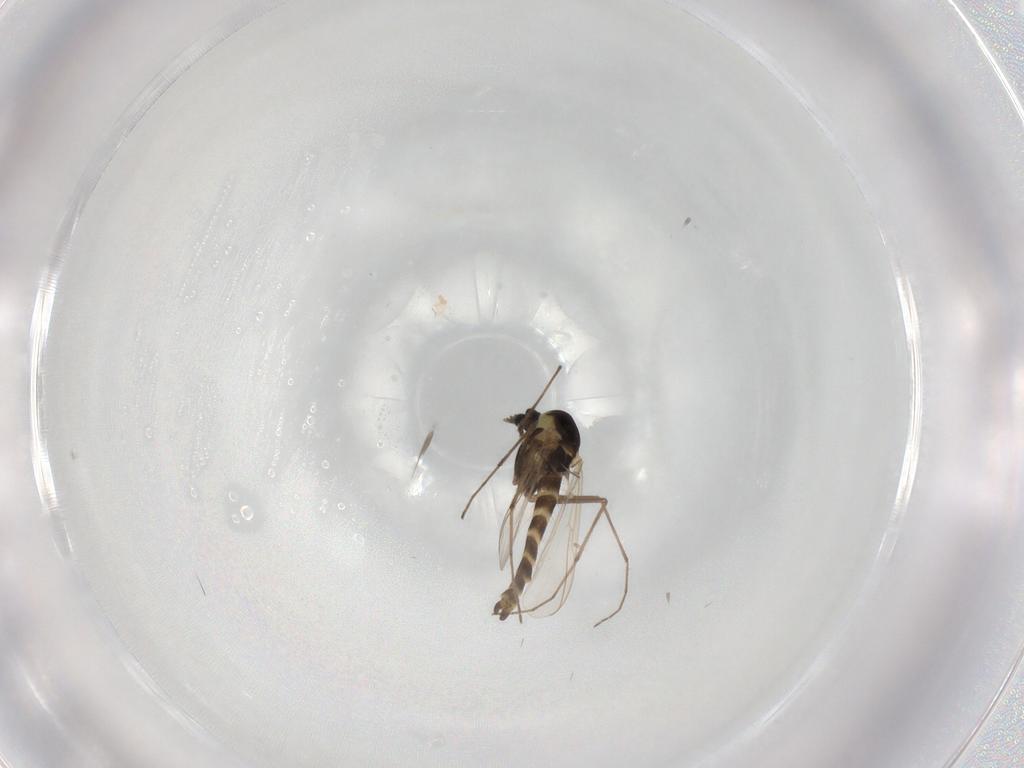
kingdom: Animalia
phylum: Arthropoda
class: Insecta
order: Diptera
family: Chironomidae
